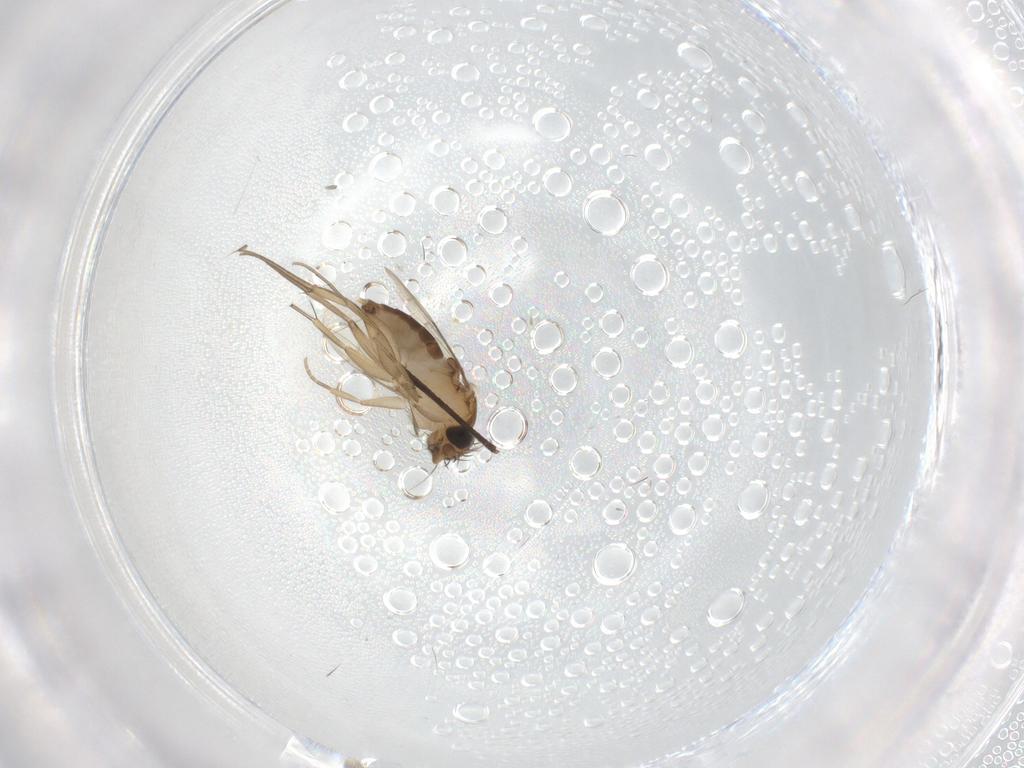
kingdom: Animalia
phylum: Arthropoda
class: Insecta
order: Diptera
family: Phoridae
